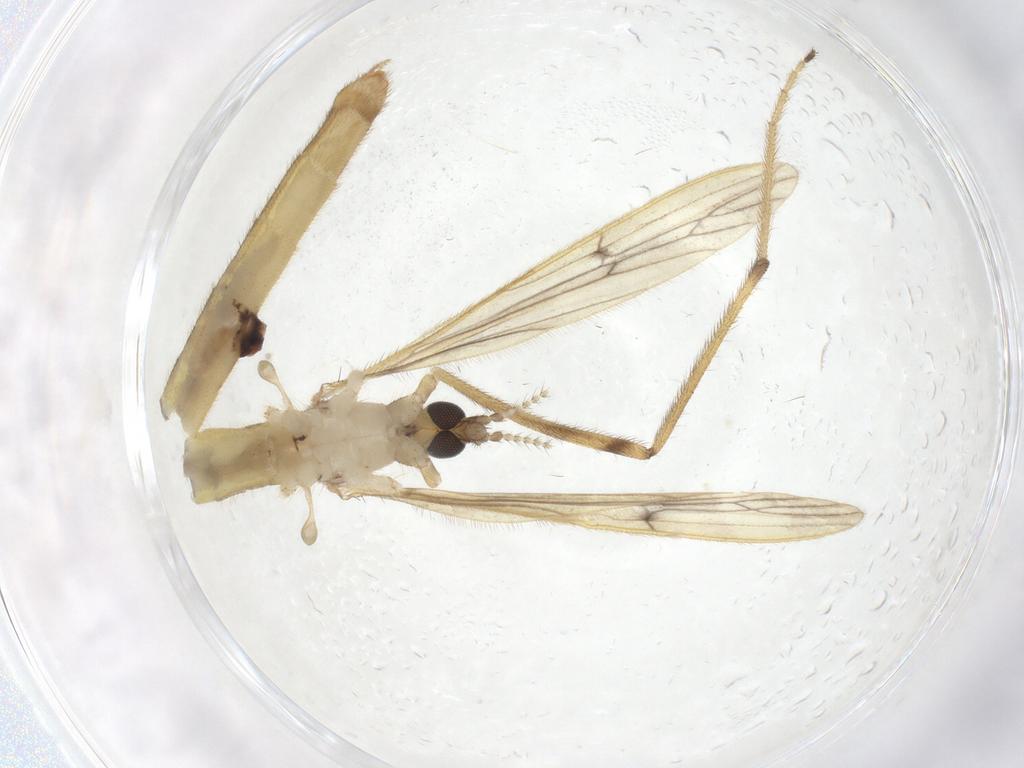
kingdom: Animalia
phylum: Arthropoda
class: Insecta
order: Diptera
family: Limoniidae
